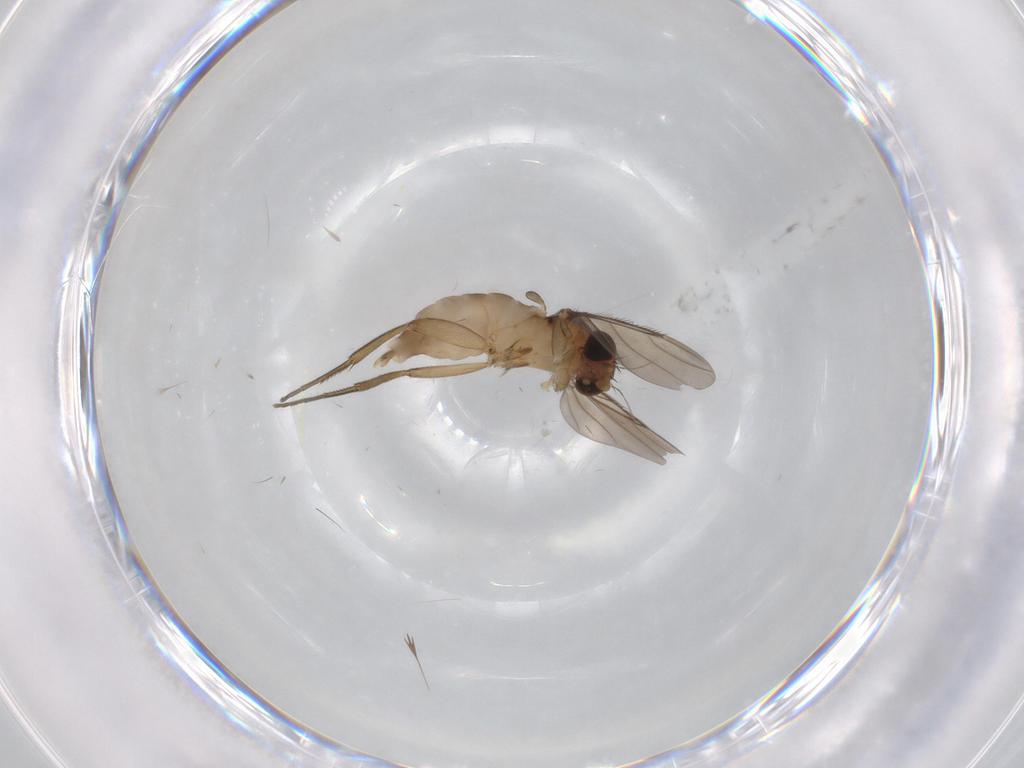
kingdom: Animalia
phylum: Arthropoda
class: Insecta
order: Diptera
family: Phoridae
